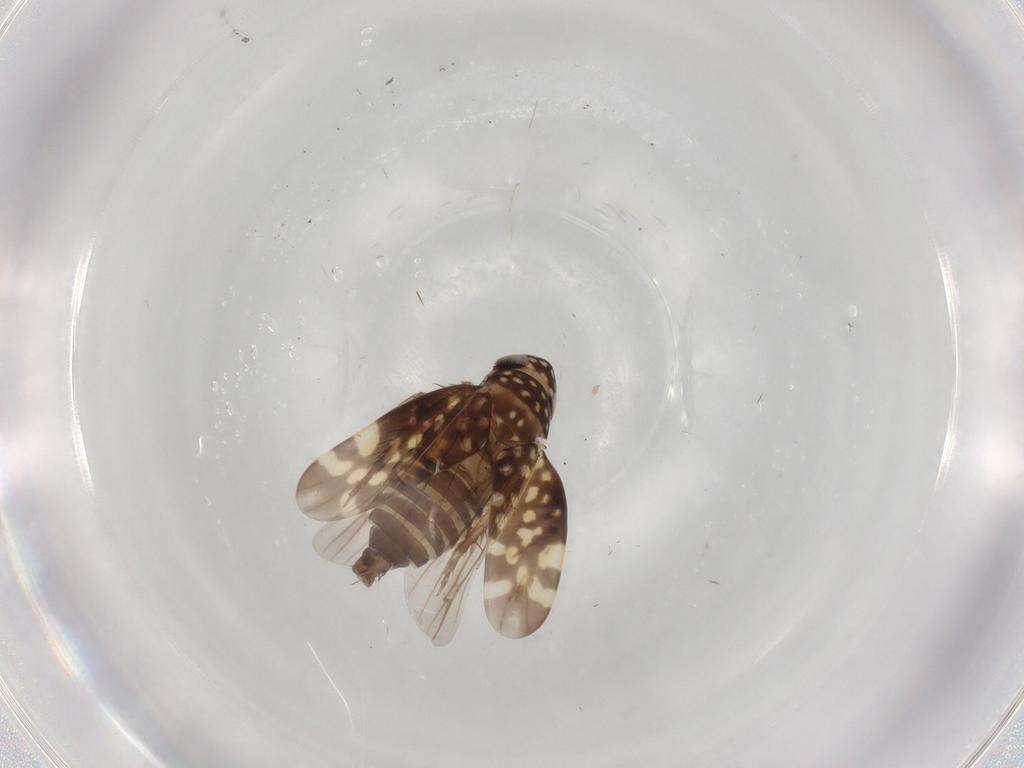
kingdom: Animalia
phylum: Arthropoda
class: Insecta
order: Hemiptera
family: Cicadellidae
